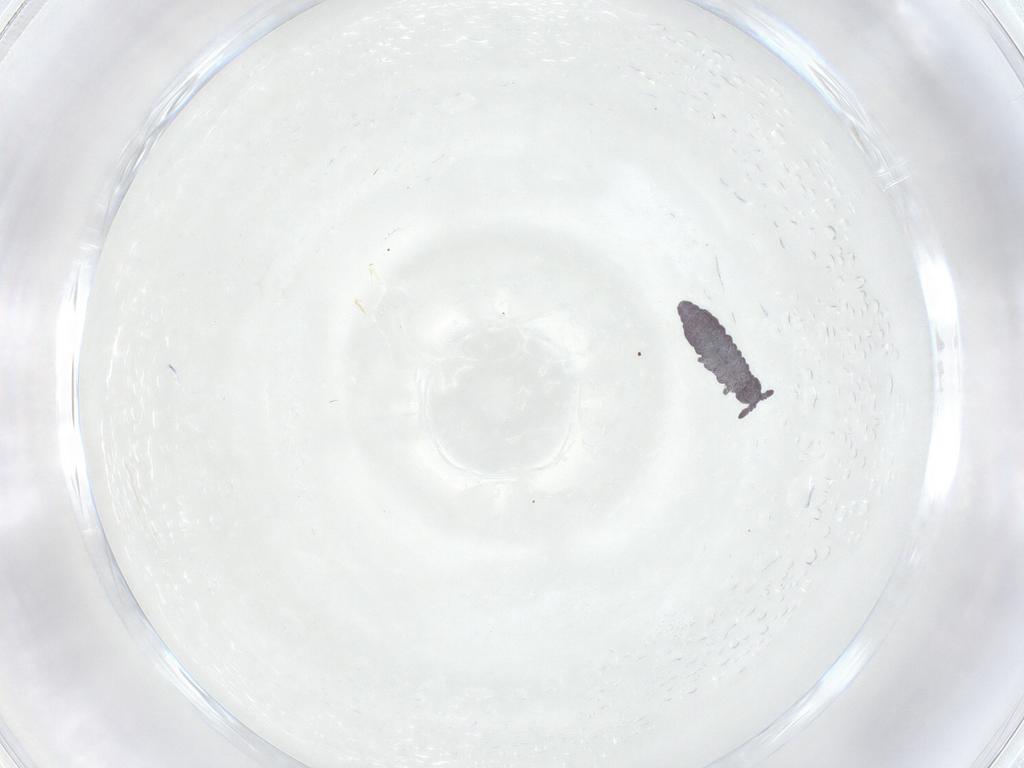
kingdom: Animalia
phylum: Arthropoda
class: Collembola
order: Poduromorpha
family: Hypogastruridae
